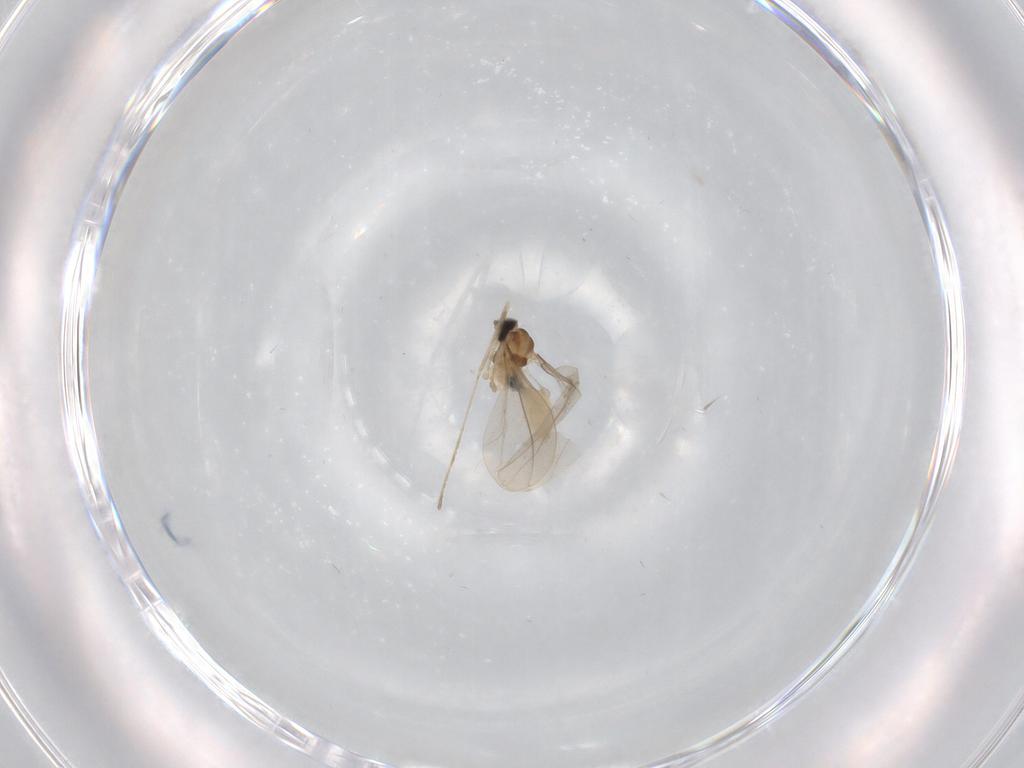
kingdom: Animalia
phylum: Arthropoda
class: Insecta
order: Diptera
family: Cecidomyiidae
